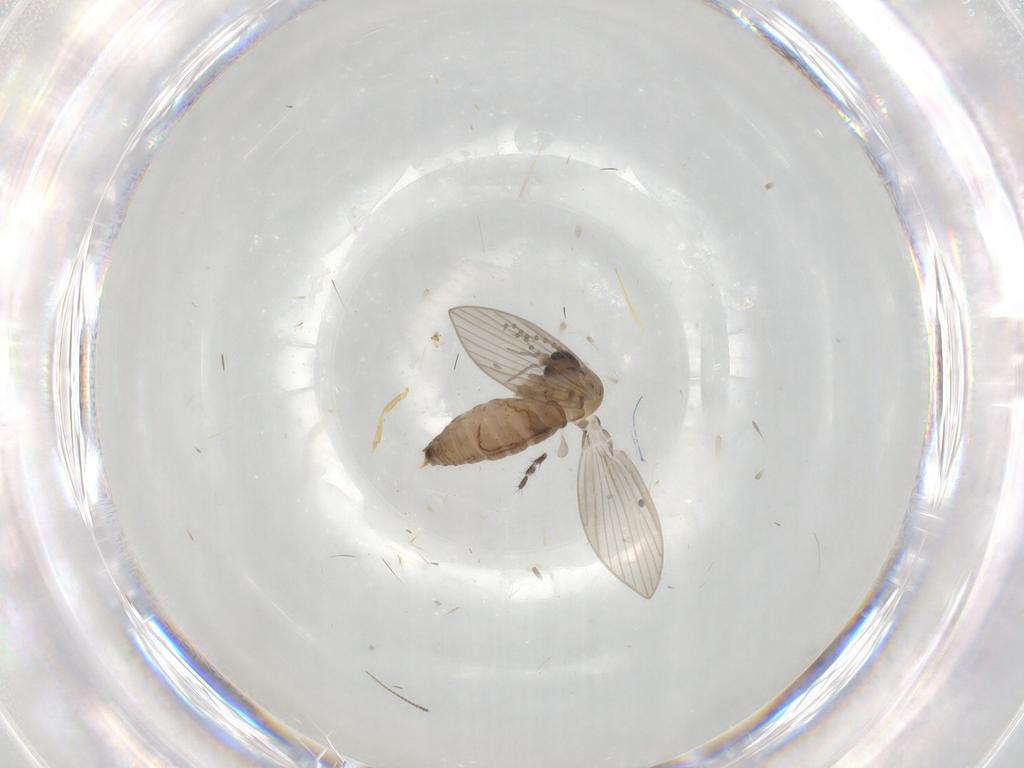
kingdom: Animalia
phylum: Arthropoda
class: Insecta
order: Diptera
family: Psychodidae
